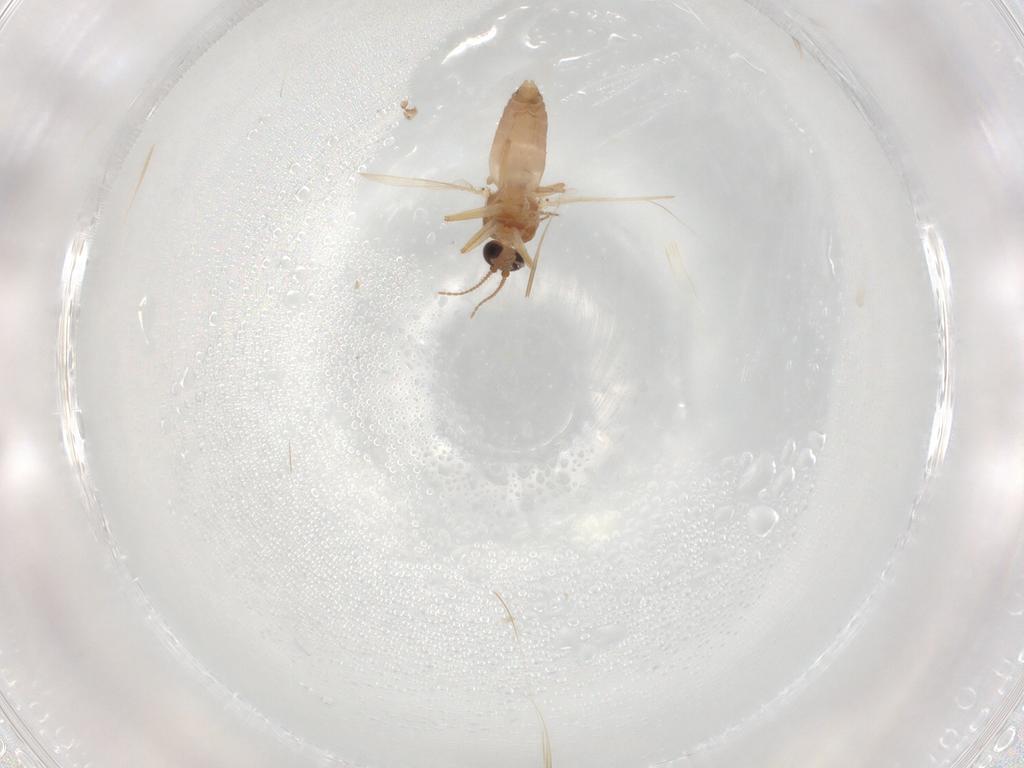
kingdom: Animalia
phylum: Arthropoda
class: Insecta
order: Diptera
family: Ceratopogonidae
